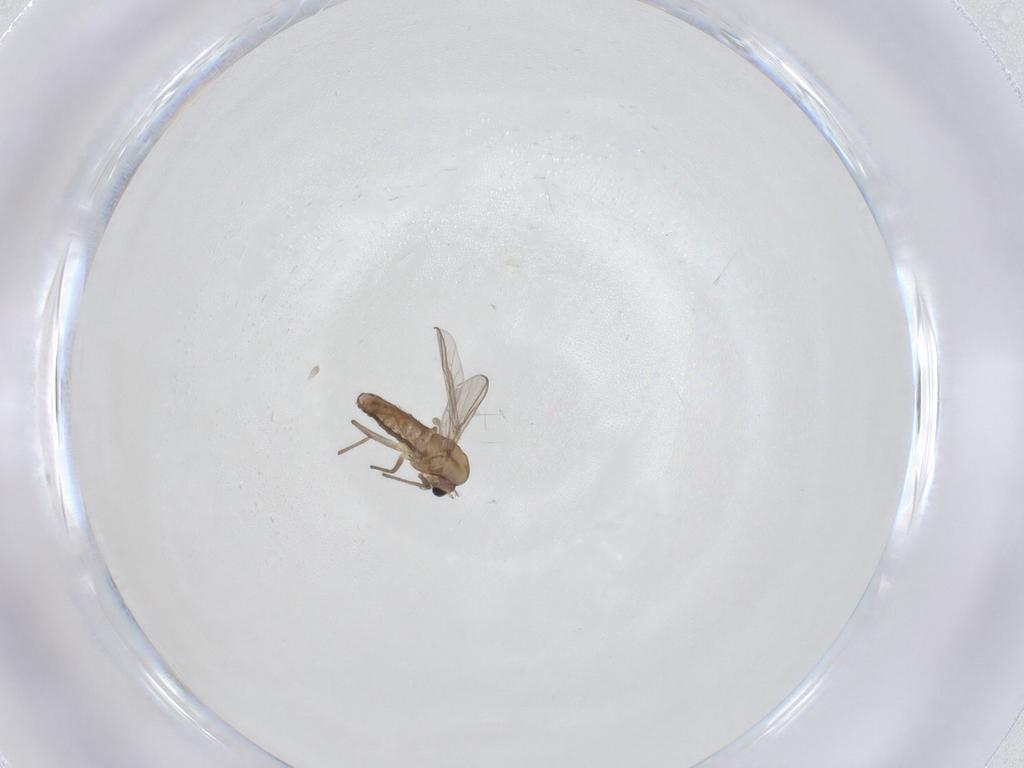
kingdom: Animalia
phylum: Arthropoda
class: Insecta
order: Diptera
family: Chironomidae
